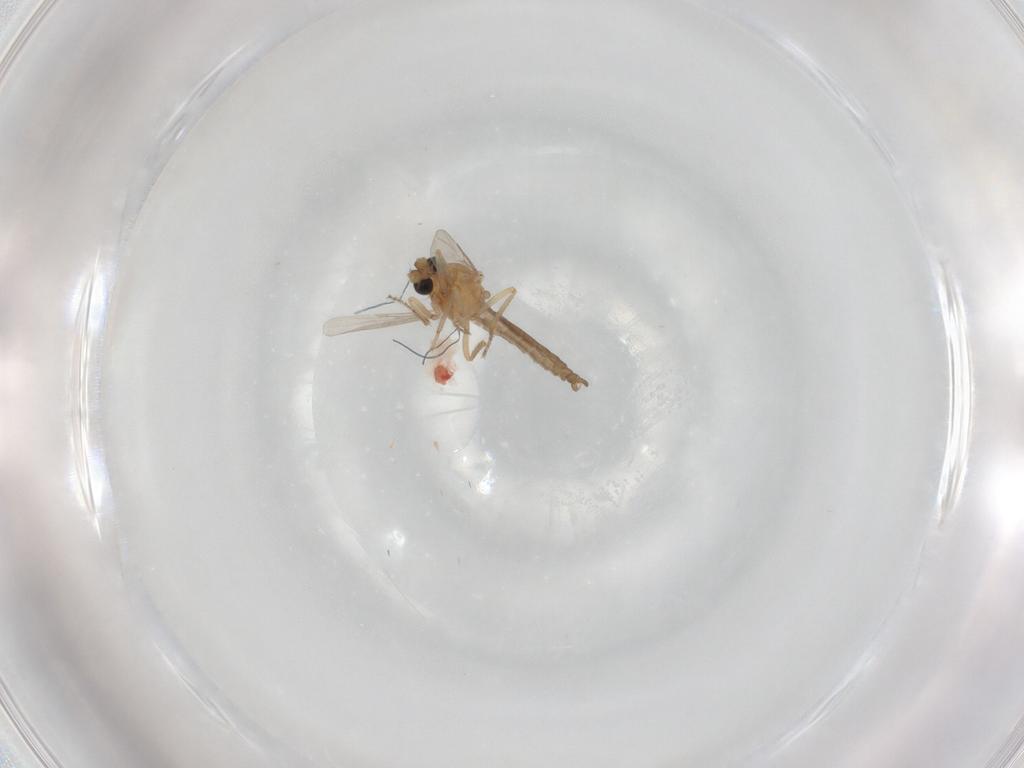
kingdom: Animalia
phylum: Arthropoda
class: Insecta
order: Diptera
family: Ceratopogonidae
